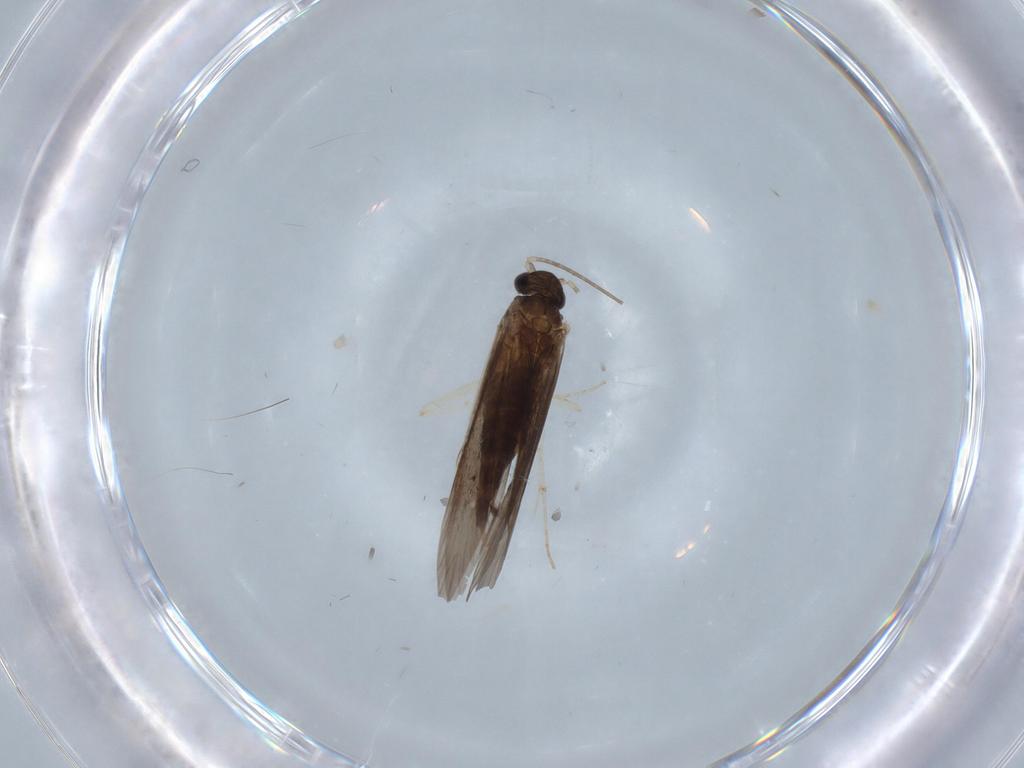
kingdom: Animalia
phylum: Arthropoda
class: Insecta
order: Trichoptera
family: Xiphocentronidae
